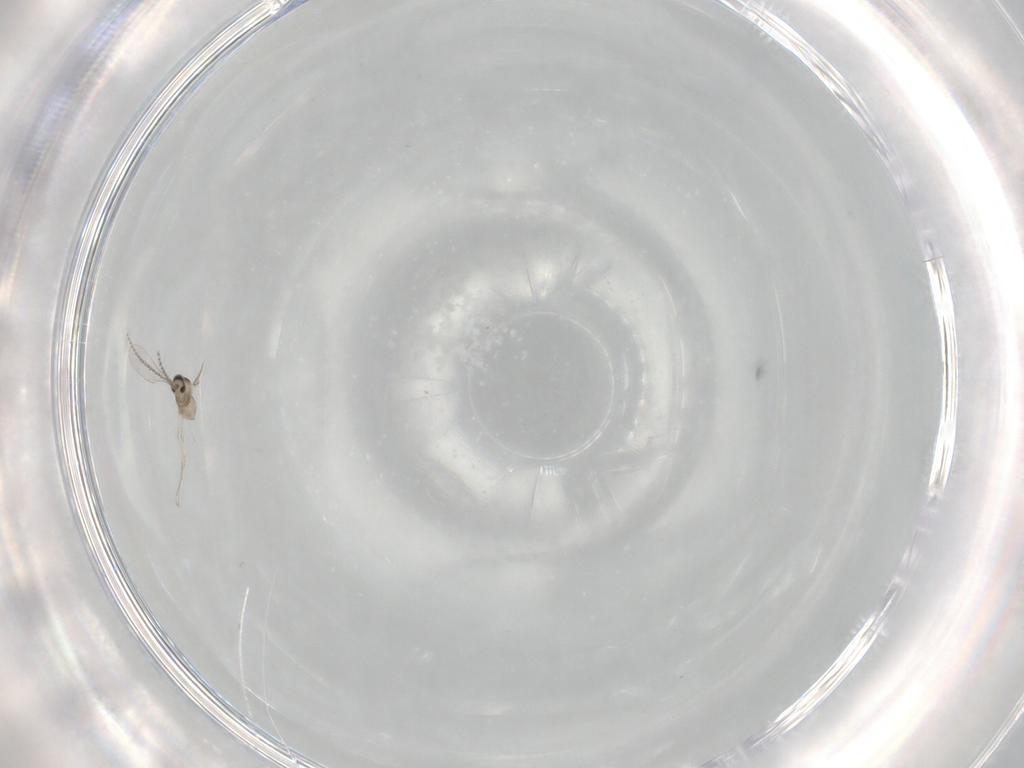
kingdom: Animalia
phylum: Arthropoda
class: Insecta
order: Diptera
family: Cecidomyiidae
